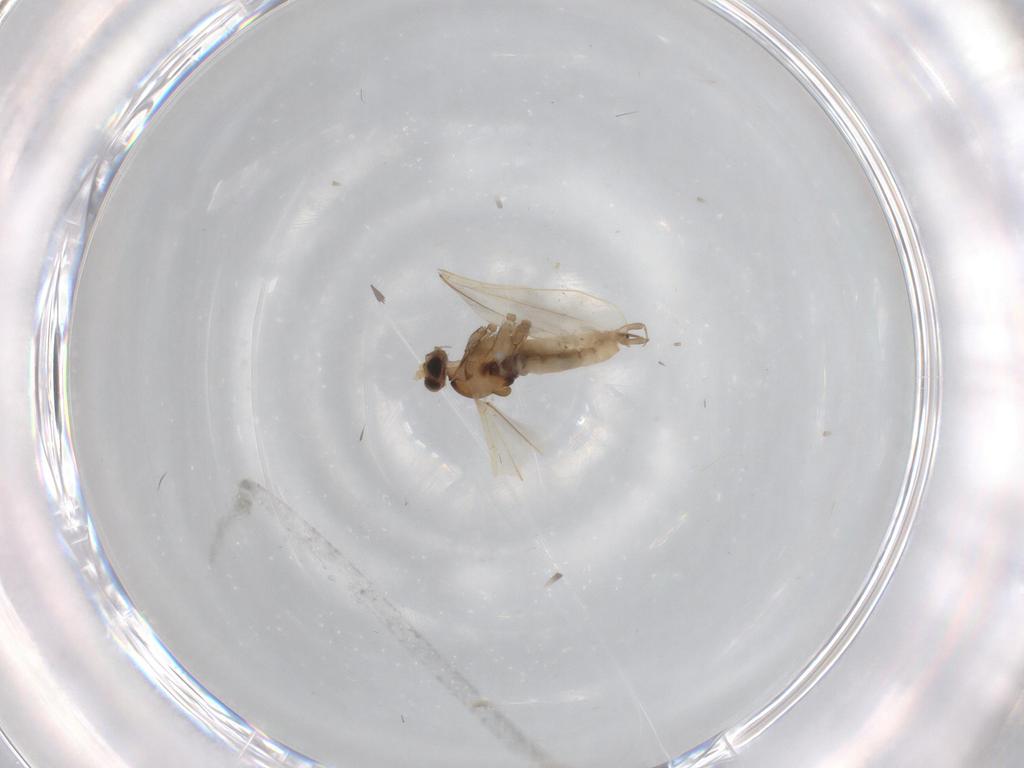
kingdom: Animalia
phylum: Arthropoda
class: Insecta
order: Diptera
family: Cecidomyiidae
